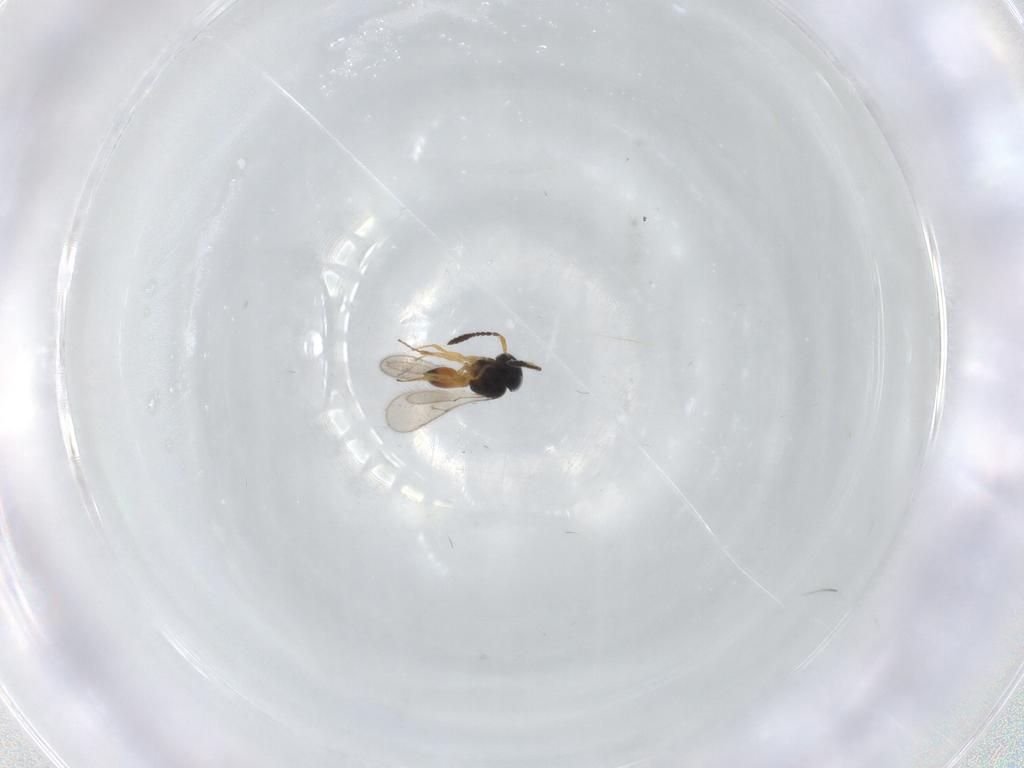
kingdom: Animalia
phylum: Arthropoda
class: Insecta
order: Hymenoptera
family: Scelionidae
